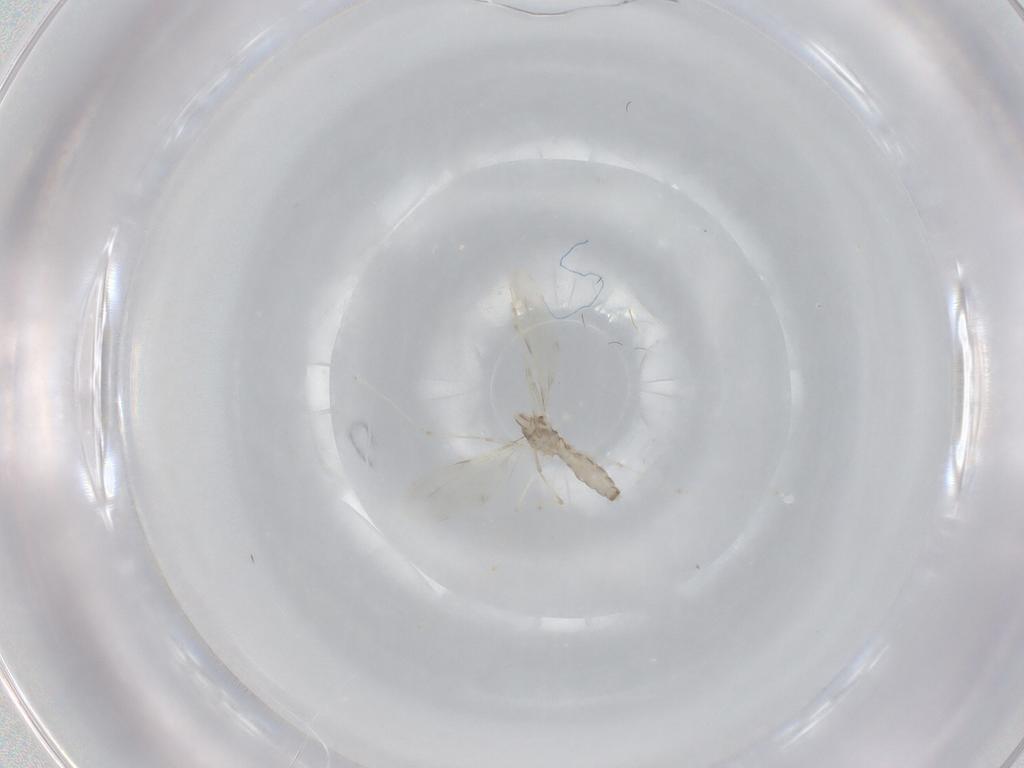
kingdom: Animalia
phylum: Arthropoda
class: Insecta
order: Diptera
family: Cecidomyiidae
